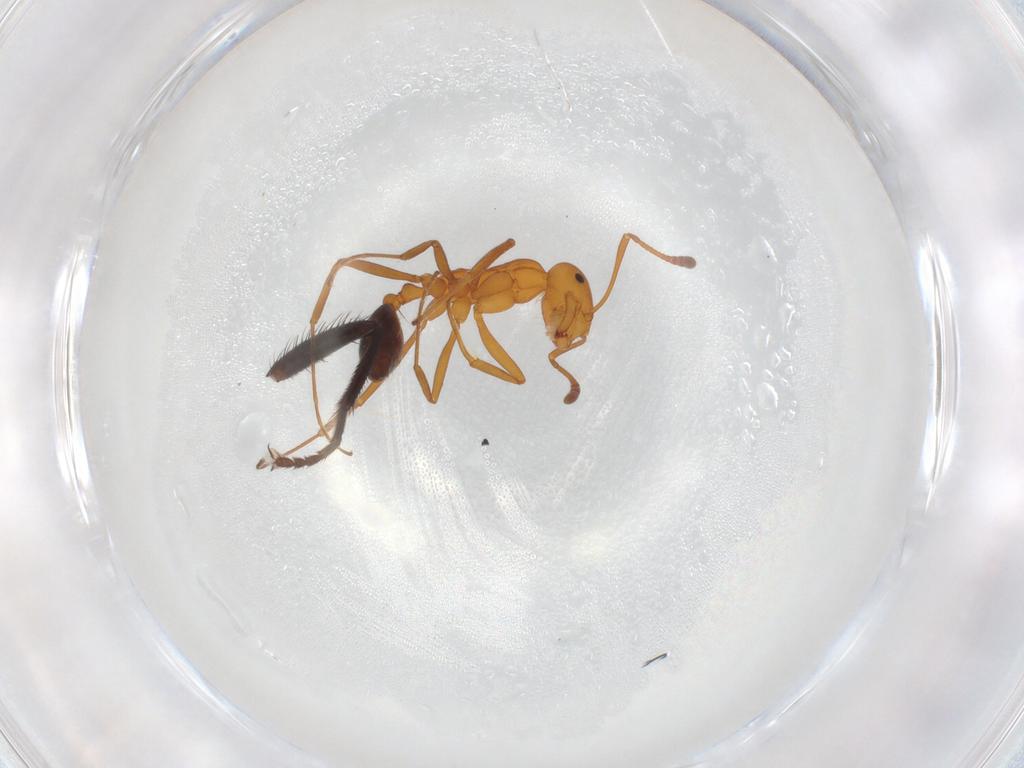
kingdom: Animalia
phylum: Arthropoda
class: Insecta
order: Hymenoptera
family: Formicidae
